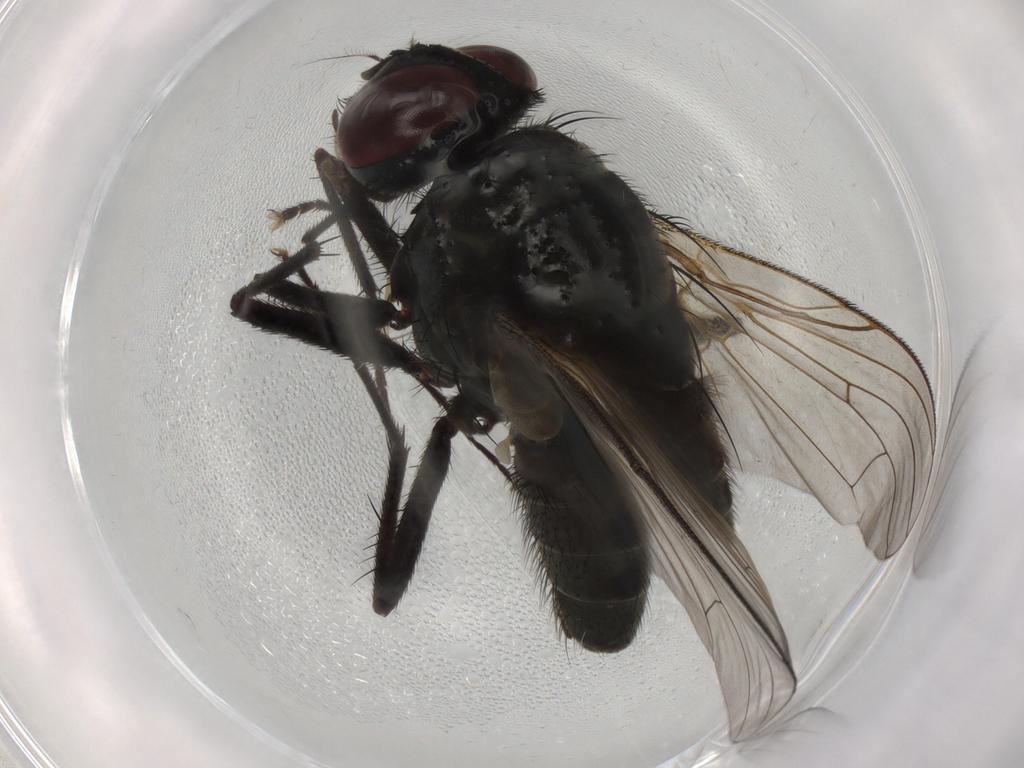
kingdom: Animalia
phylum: Arthropoda
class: Insecta
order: Diptera
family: Muscidae
